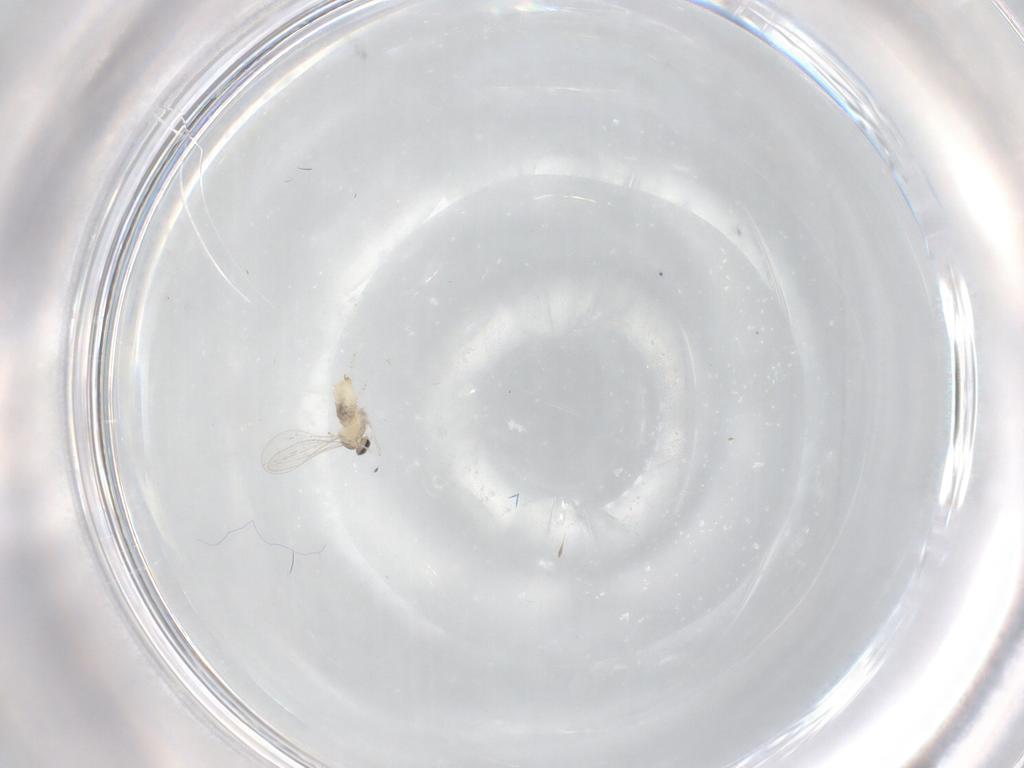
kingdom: Animalia
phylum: Arthropoda
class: Insecta
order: Diptera
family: Cecidomyiidae
